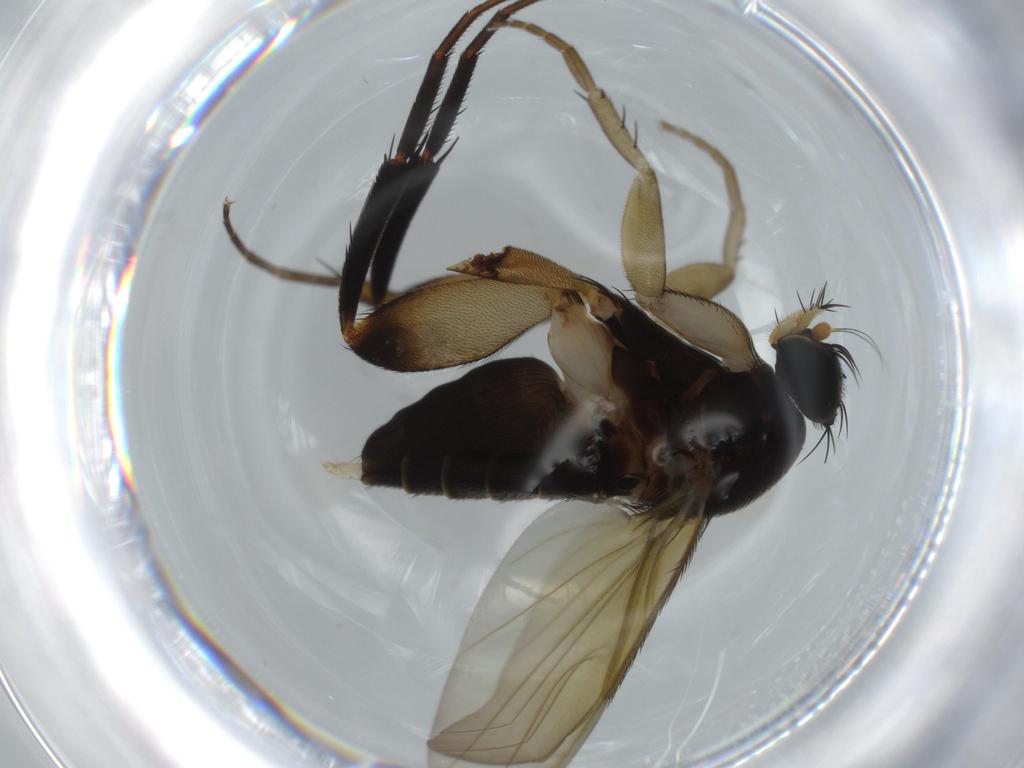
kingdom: Animalia
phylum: Arthropoda
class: Insecta
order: Diptera
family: Phoridae
